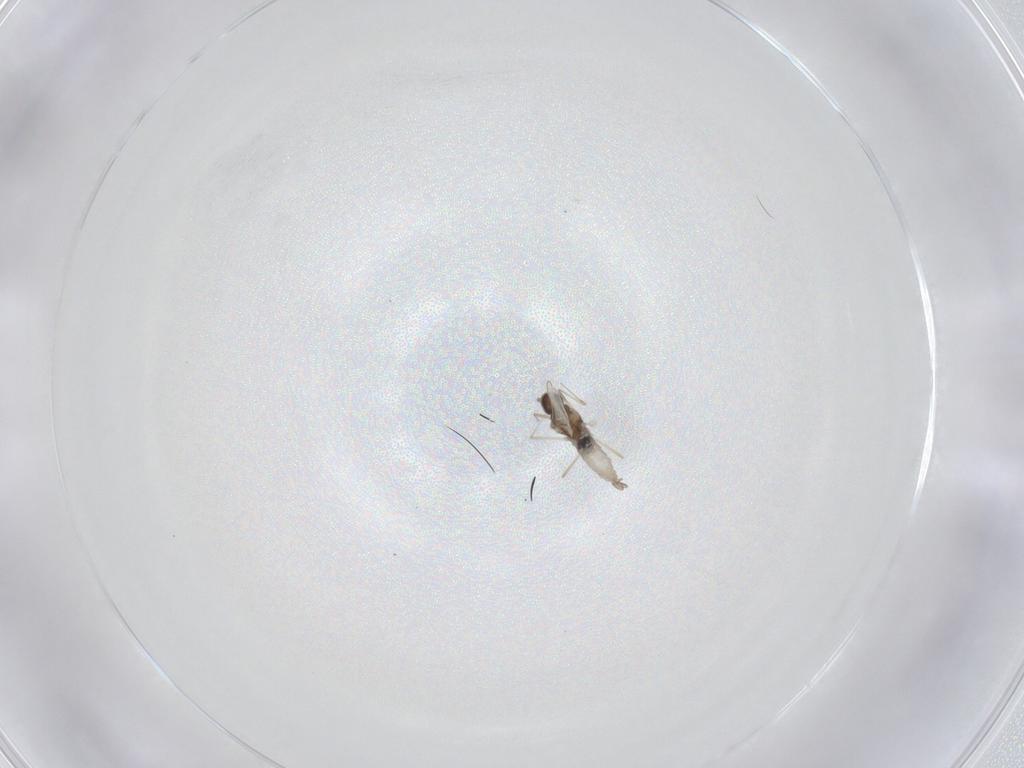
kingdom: Animalia
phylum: Arthropoda
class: Insecta
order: Diptera
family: Cecidomyiidae
